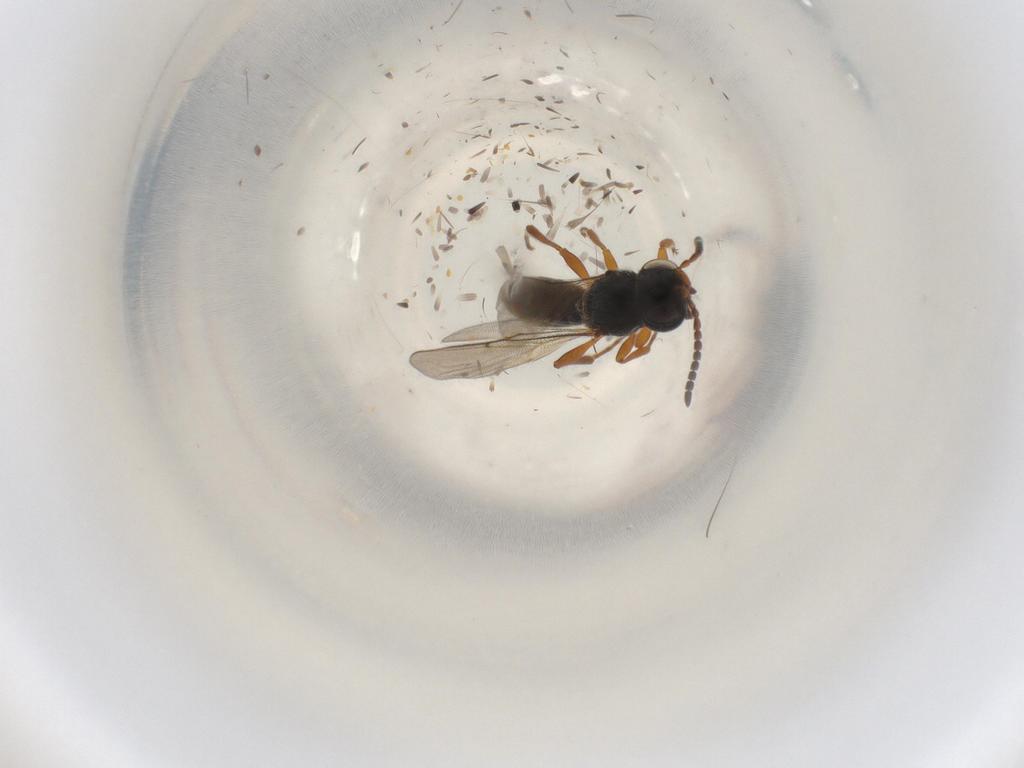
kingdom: Animalia
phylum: Arthropoda
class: Insecta
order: Hymenoptera
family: Scelionidae
